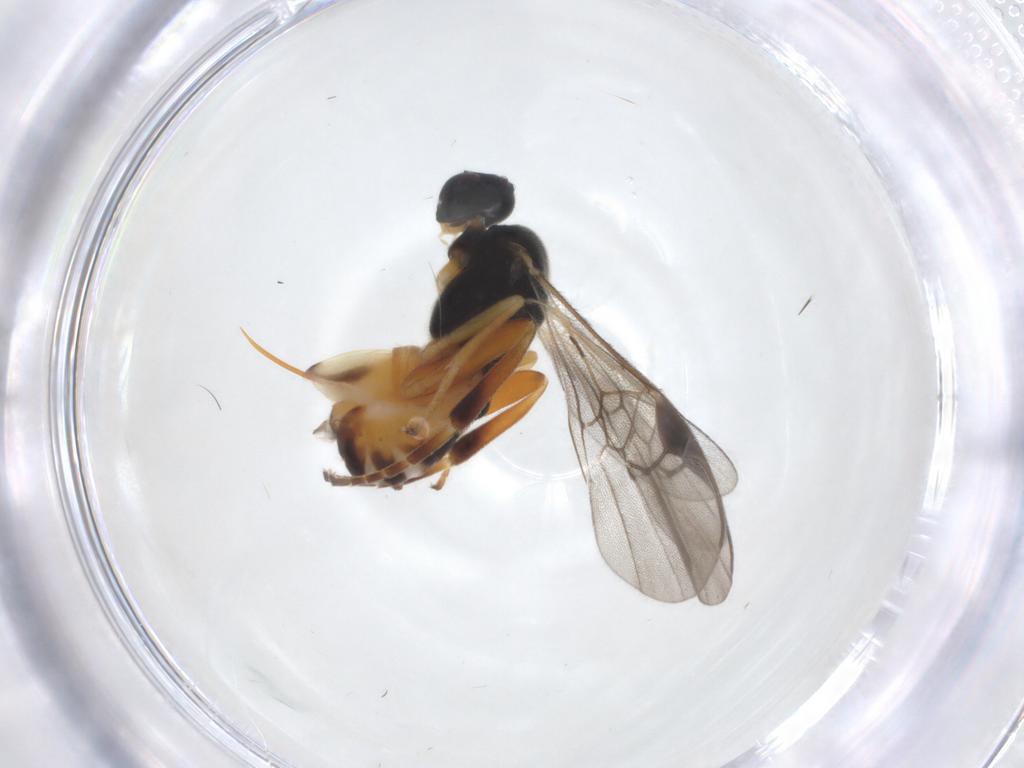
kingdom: Animalia
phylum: Arthropoda
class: Insecta
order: Hymenoptera
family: Braconidae
